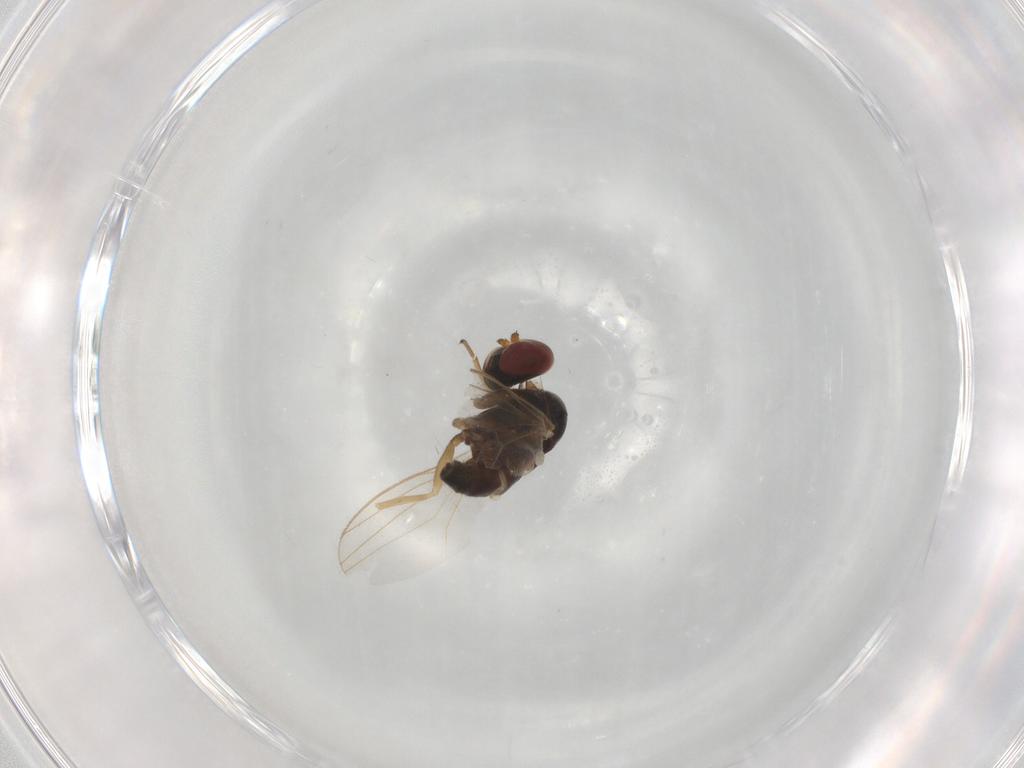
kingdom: Animalia
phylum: Arthropoda
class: Insecta
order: Diptera
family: Dolichopodidae
